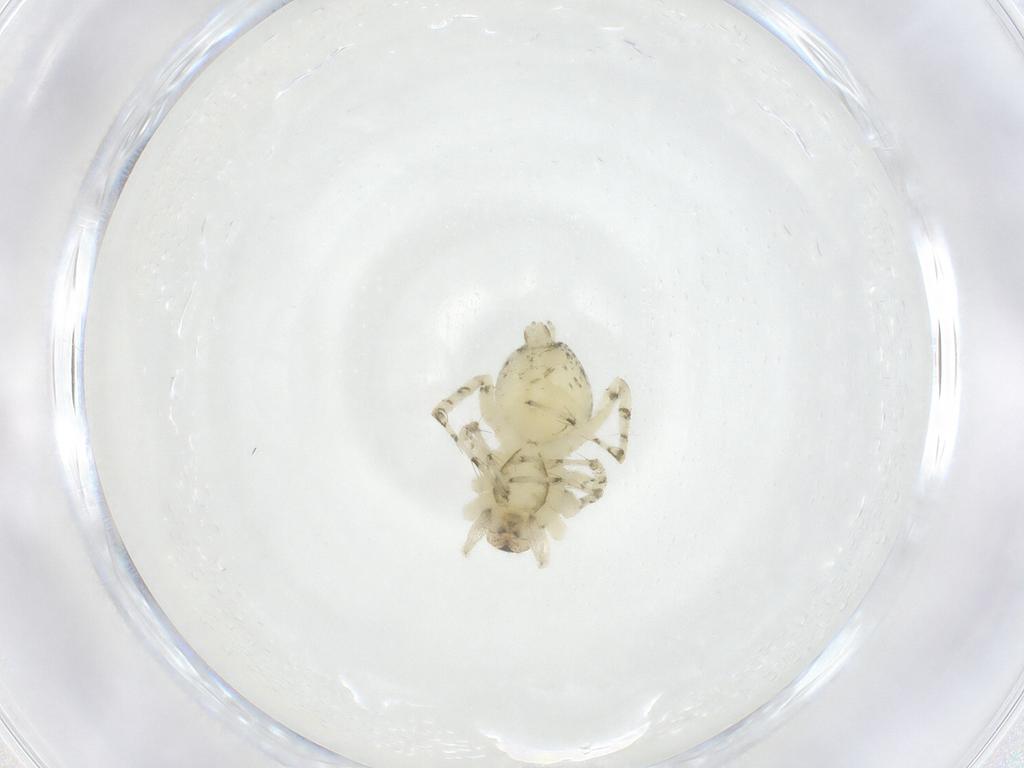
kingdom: Animalia
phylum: Arthropoda
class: Arachnida
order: Araneae
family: Anyphaenidae
